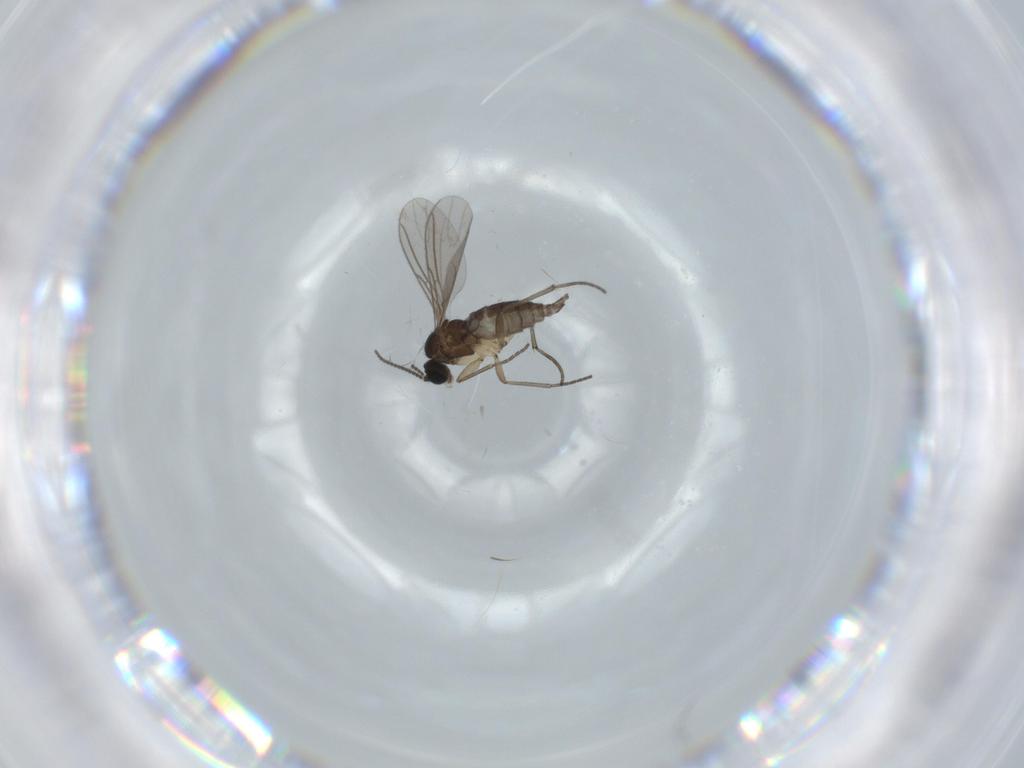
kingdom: Animalia
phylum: Arthropoda
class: Insecta
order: Diptera
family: Sciaridae
